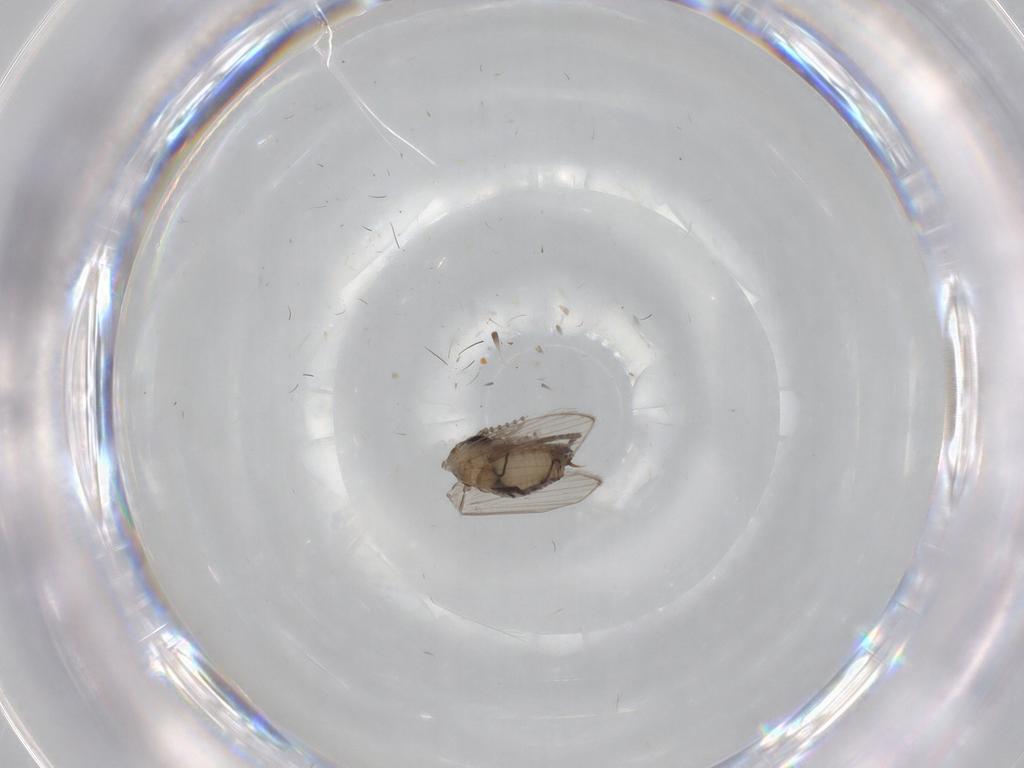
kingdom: Animalia
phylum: Arthropoda
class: Insecta
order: Diptera
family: Psychodidae
